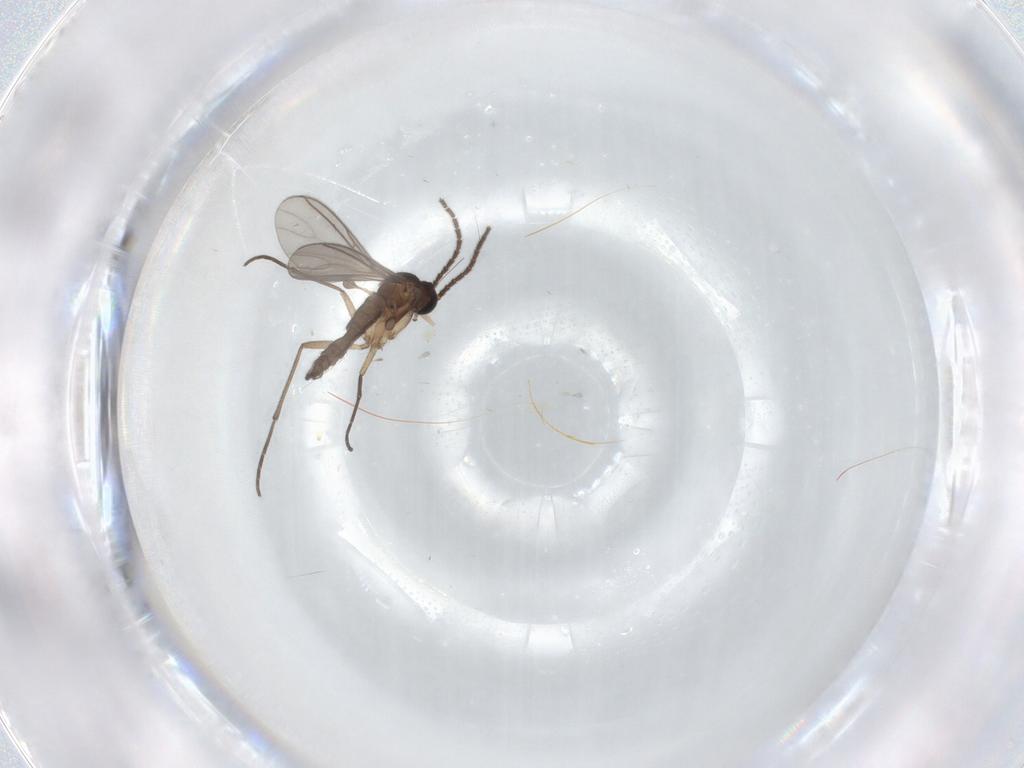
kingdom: Animalia
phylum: Arthropoda
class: Insecta
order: Diptera
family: Sciaridae
